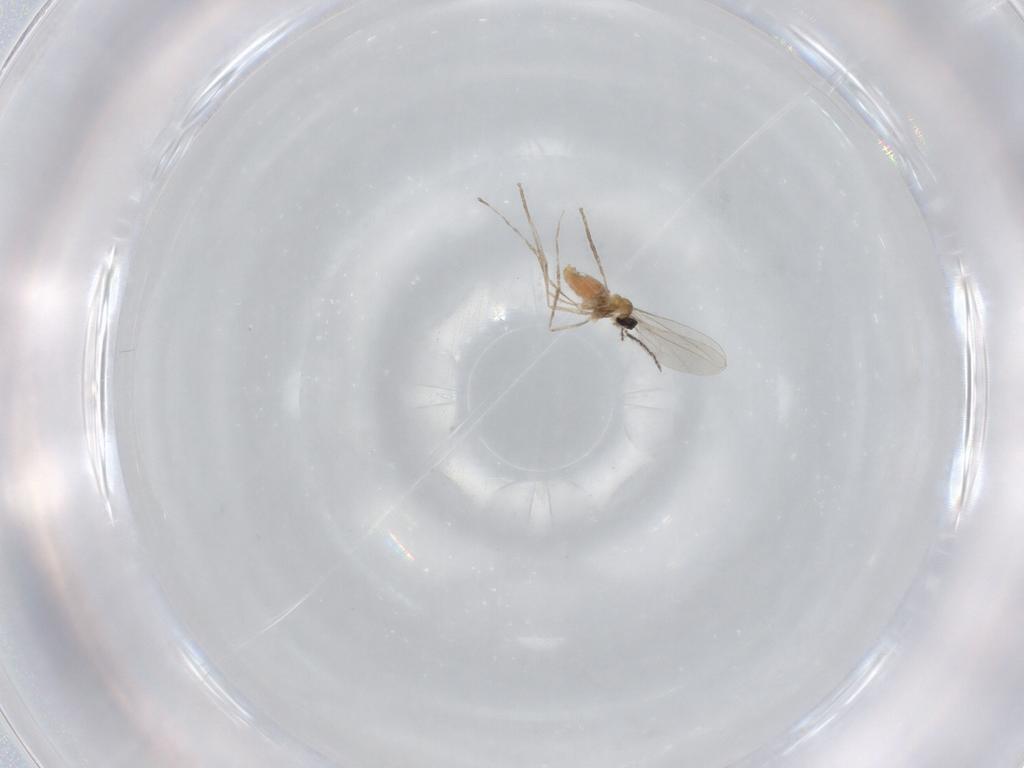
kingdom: Animalia
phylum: Arthropoda
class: Insecta
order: Diptera
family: Cecidomyiidae
